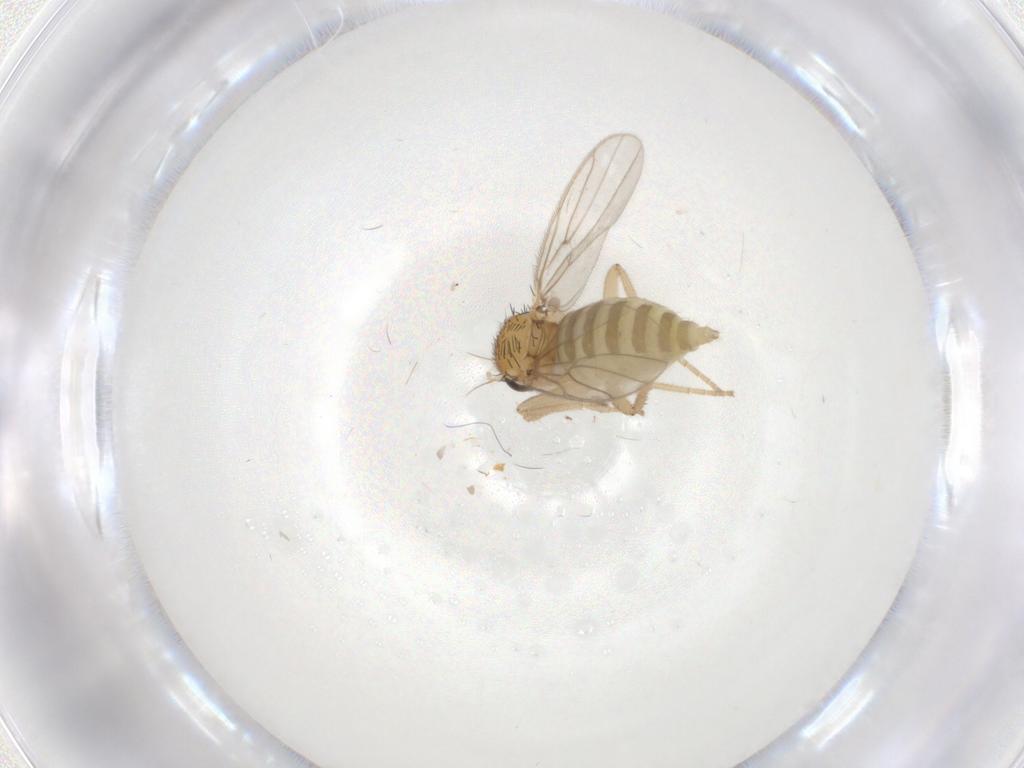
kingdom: Animalia
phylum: Arthropoda
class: Insecta
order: Diptera
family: Hybotidae
